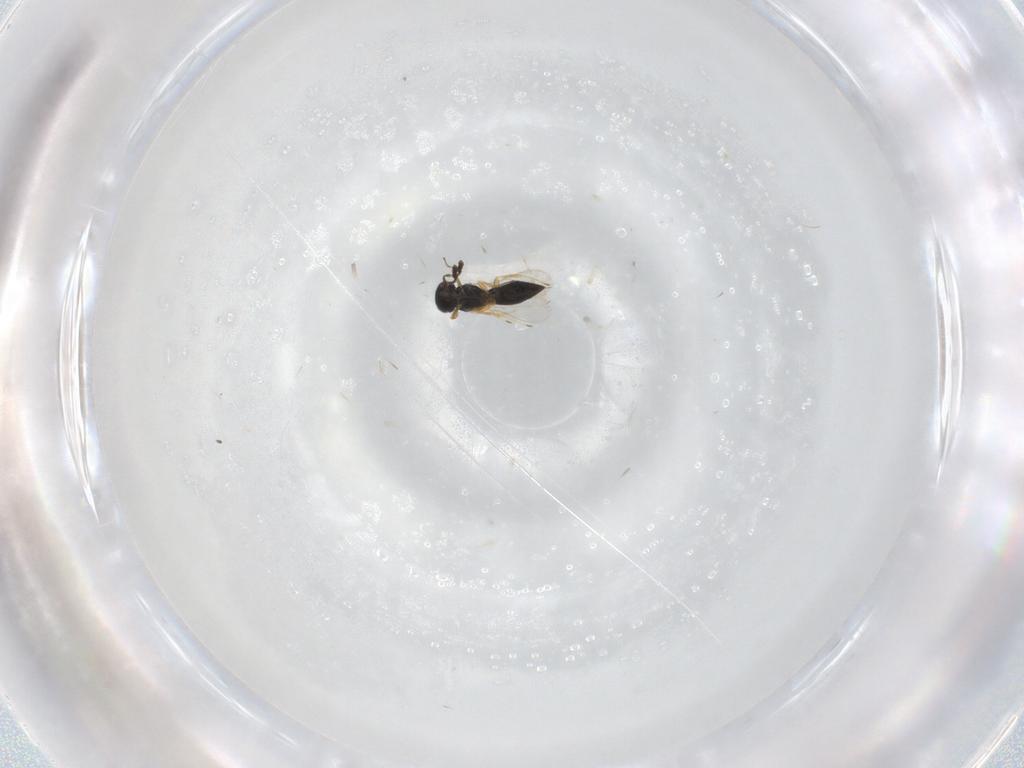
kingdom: Animalia
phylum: Arthropoda
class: Insecta
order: Hymenoptera
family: Scelionidae
